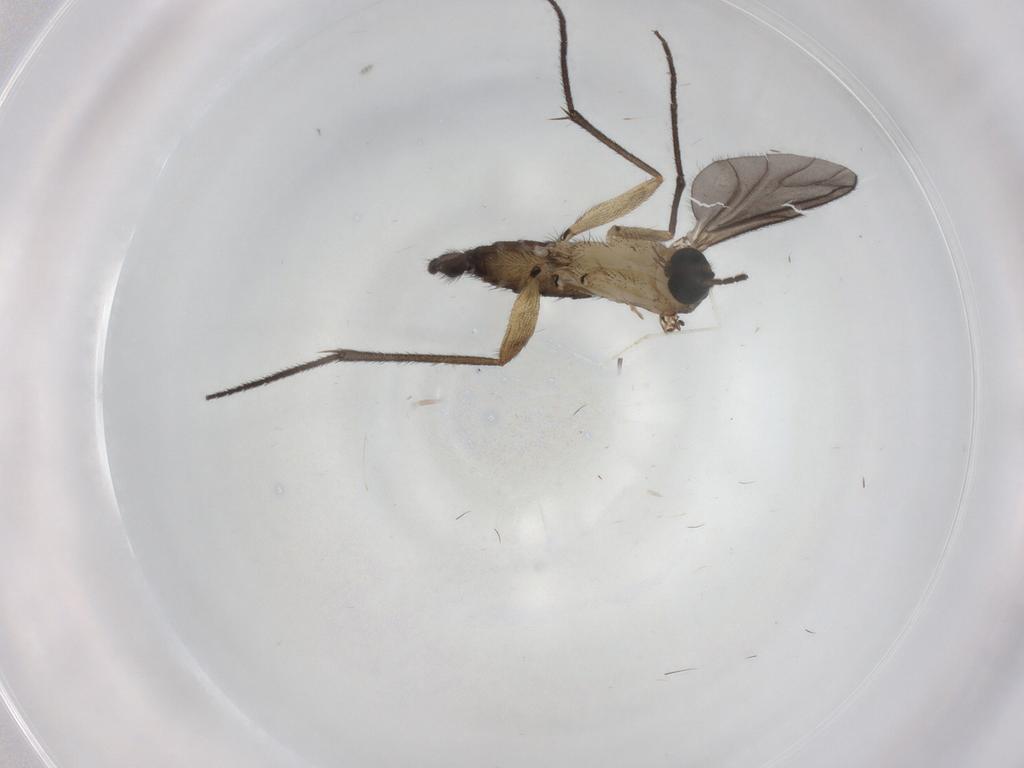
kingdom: Animalia
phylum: Arthropoda
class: Insecta
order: Diptera
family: Sciaridae
